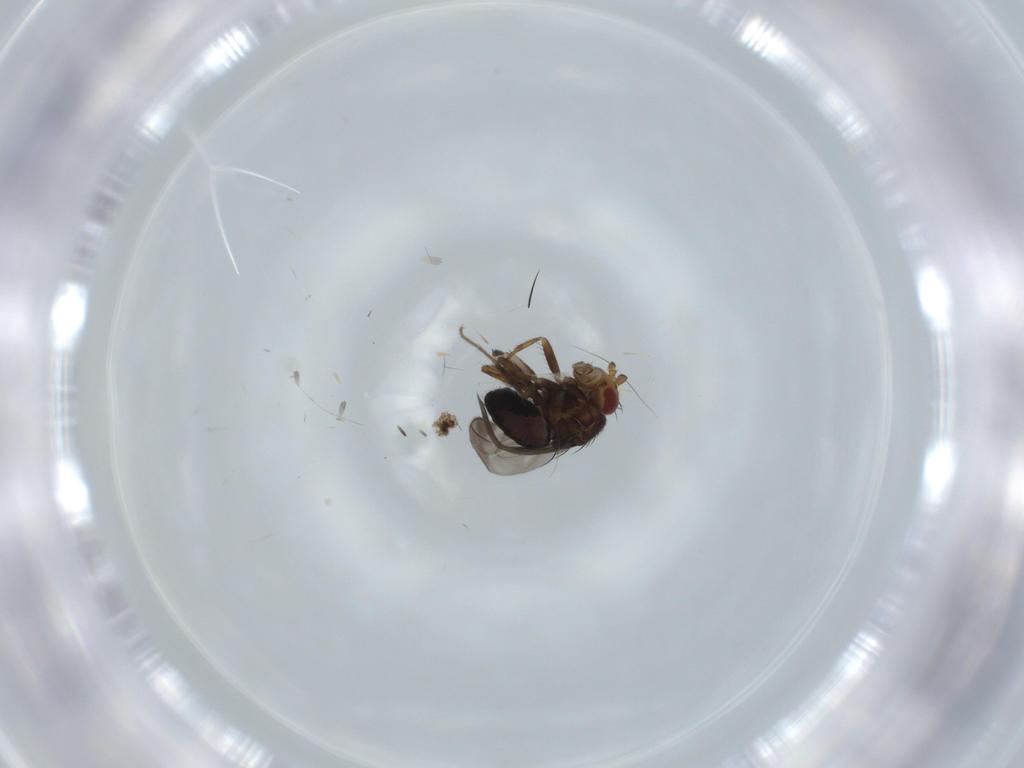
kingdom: Animalia
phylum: Arthropoda
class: Insecta
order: Diptera
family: Sphaeroceridae
